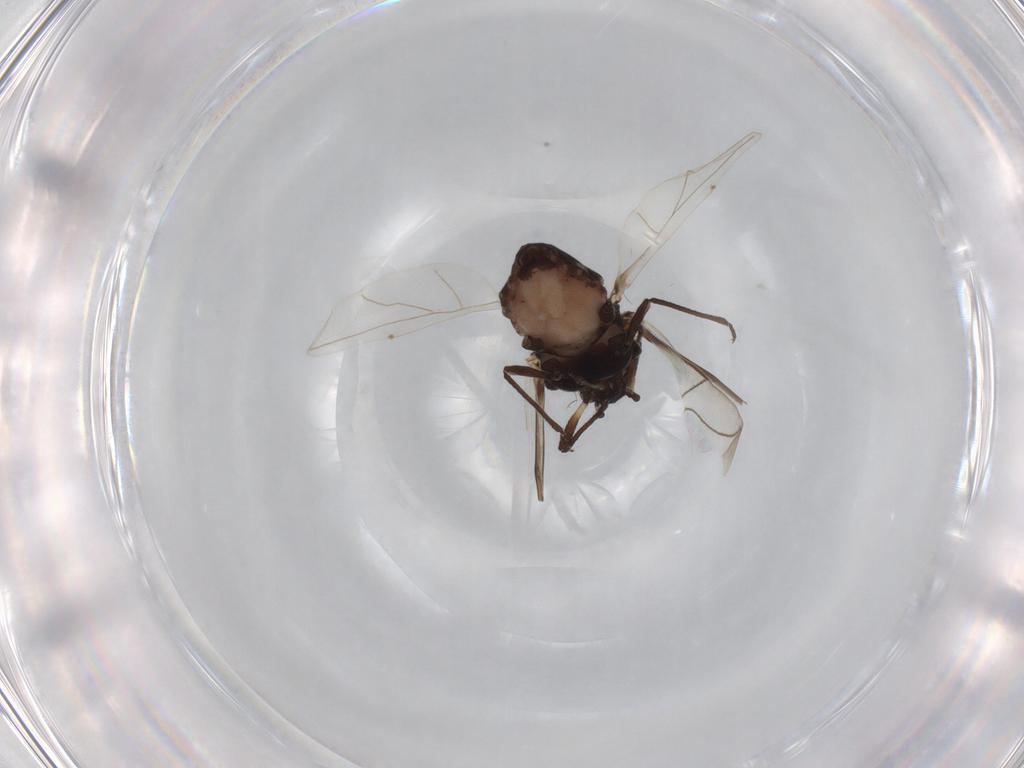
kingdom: Animalia
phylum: Arthropoda
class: Insecta
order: Hemiptera
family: Aphididae
